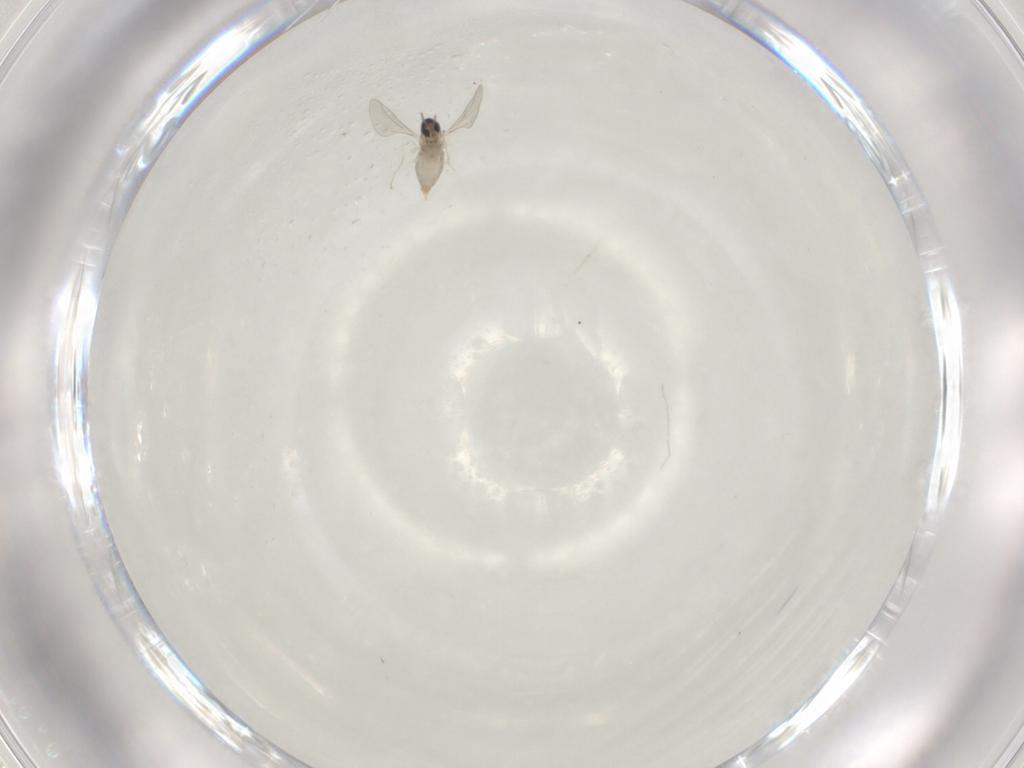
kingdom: Animalia
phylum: Arthropoda
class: Insecta
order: Diptera
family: Cecidomyiidae
